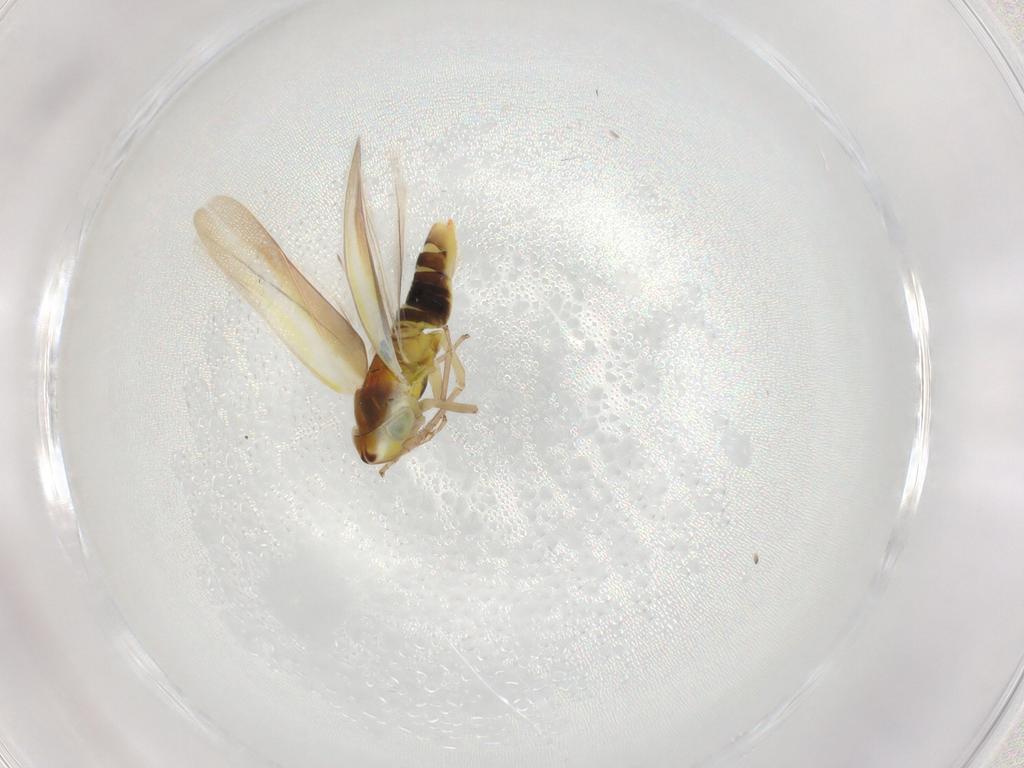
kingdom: Animalia
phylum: Arthropoda
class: Insecta
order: Hemiptera
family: Cicadellidae
